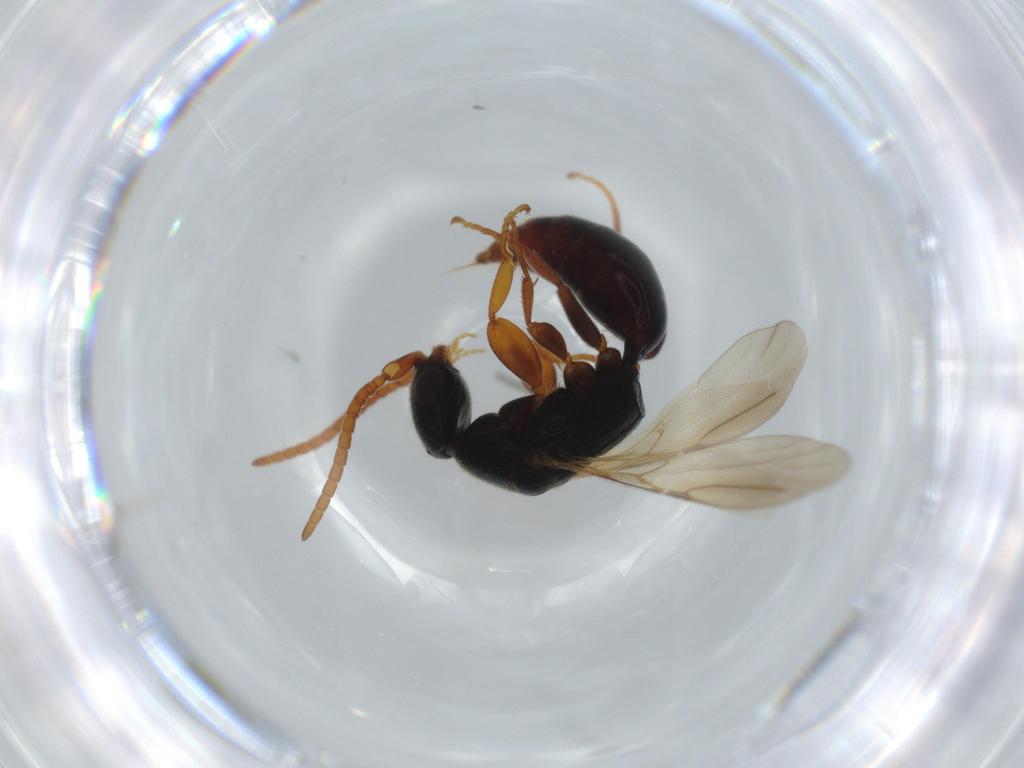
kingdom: Animalia
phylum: Arthropoda
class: Insecta
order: Hymenoptera
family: Bethylidae
